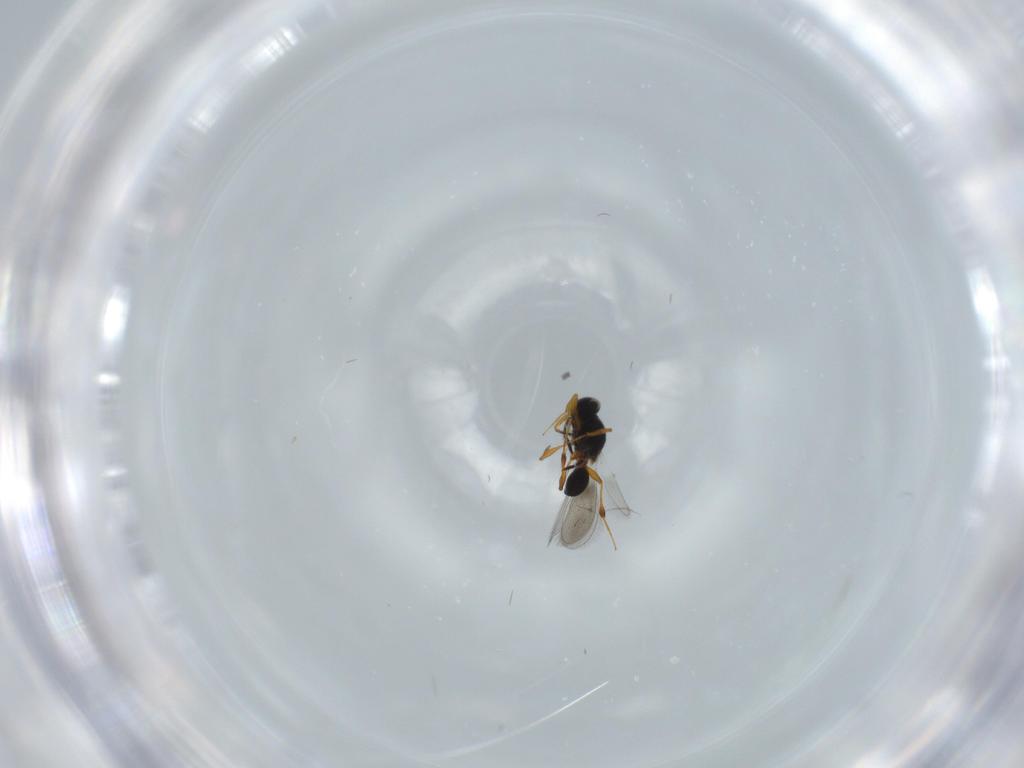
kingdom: Animalia
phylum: Arthropoda
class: Insecta
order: Hymenoptera
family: Platygastridae
